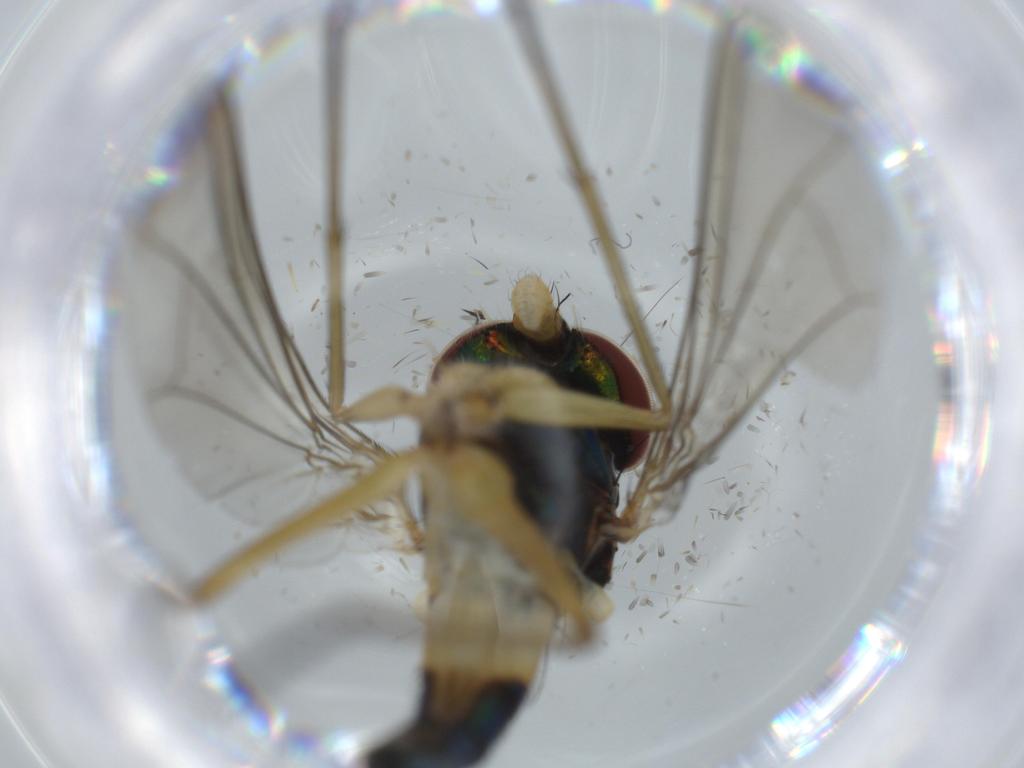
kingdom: Animalia
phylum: Arthropoda
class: Insecta
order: Diptera
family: Dolichopodidae
